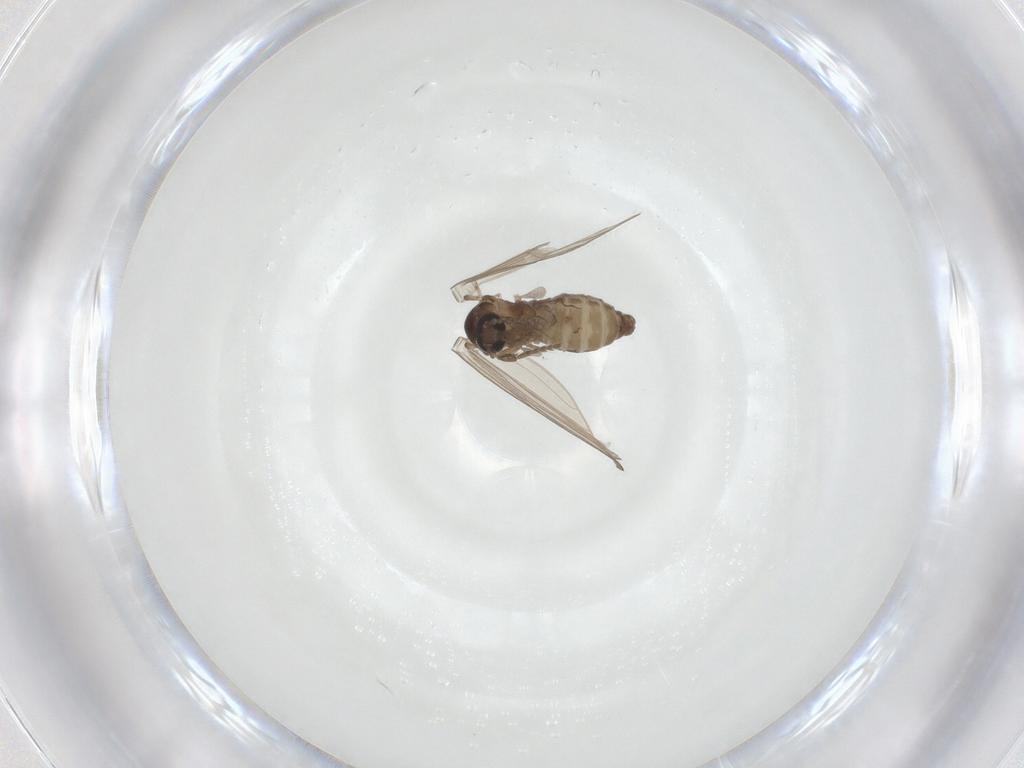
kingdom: Animalia
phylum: Arthropoda
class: Insecta
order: Diptera
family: Psychodidae
